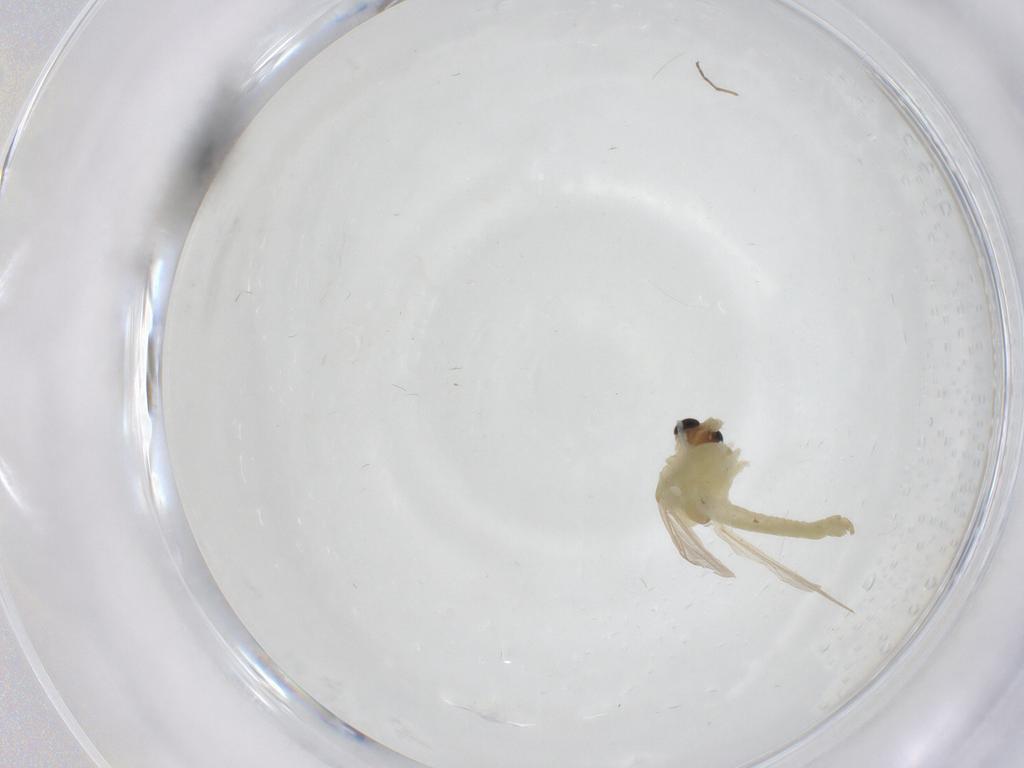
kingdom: Animalia
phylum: Arthropoda
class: Insecta
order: Diptera
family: Chironomidae
